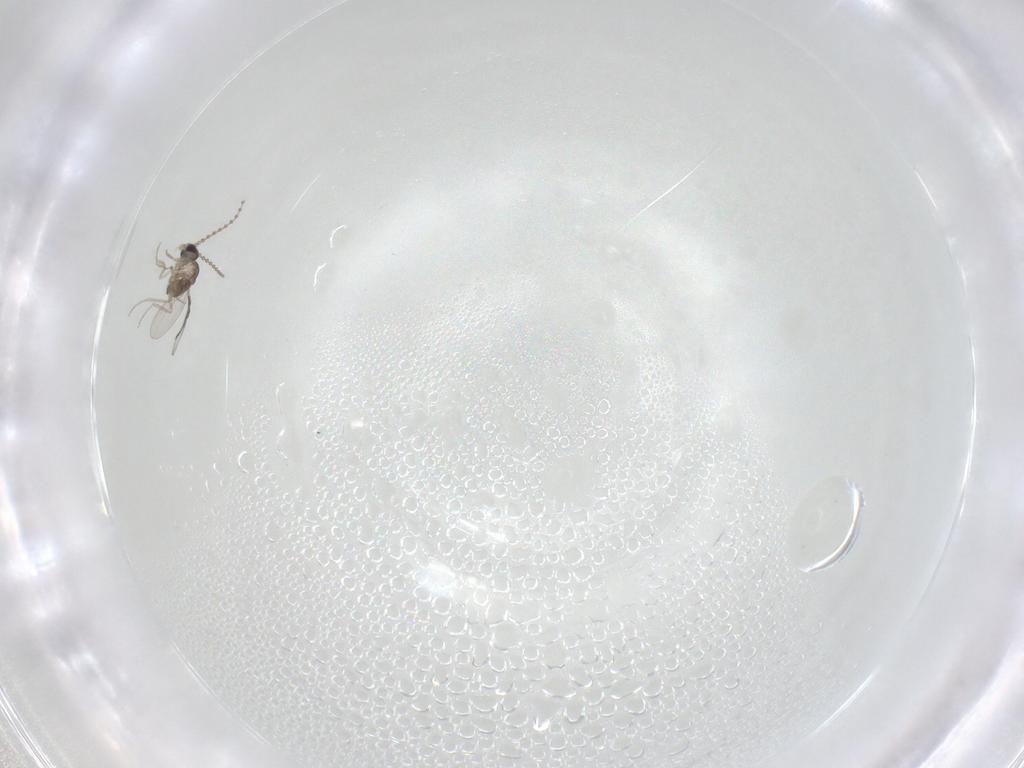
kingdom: Animalia
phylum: Arthropoda
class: Insecta
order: Diptera
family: Cecidomyiidae
